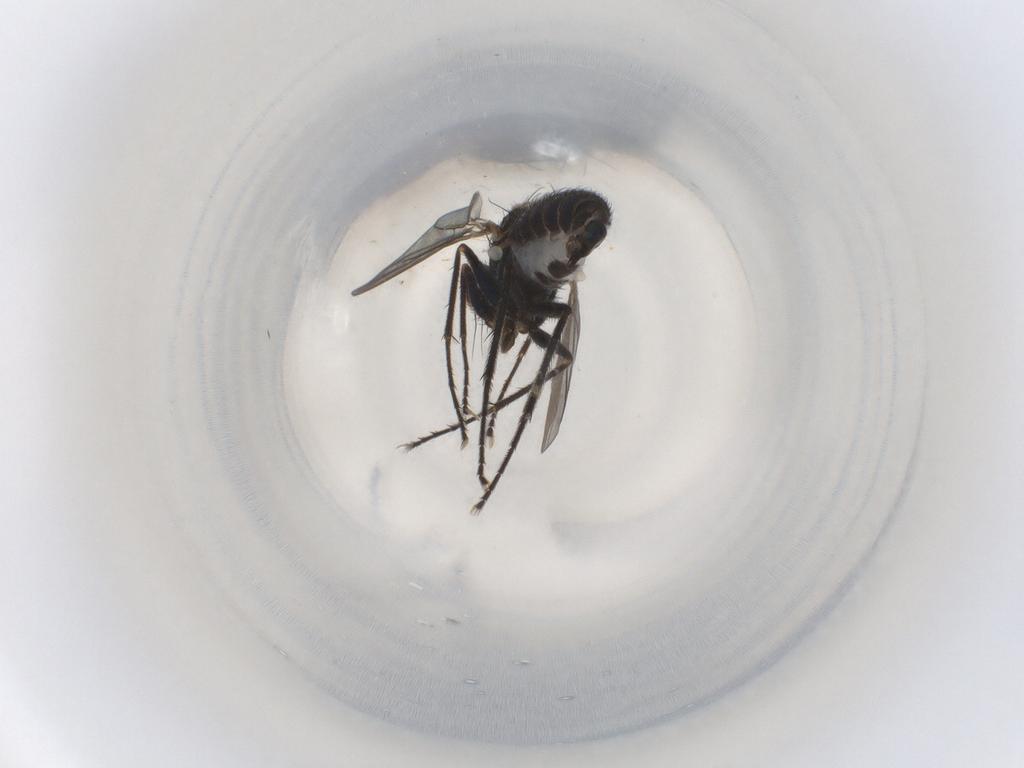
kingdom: Animalia
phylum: Arthropoda
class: Insecta
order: Diptera
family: Dolichopodidae
